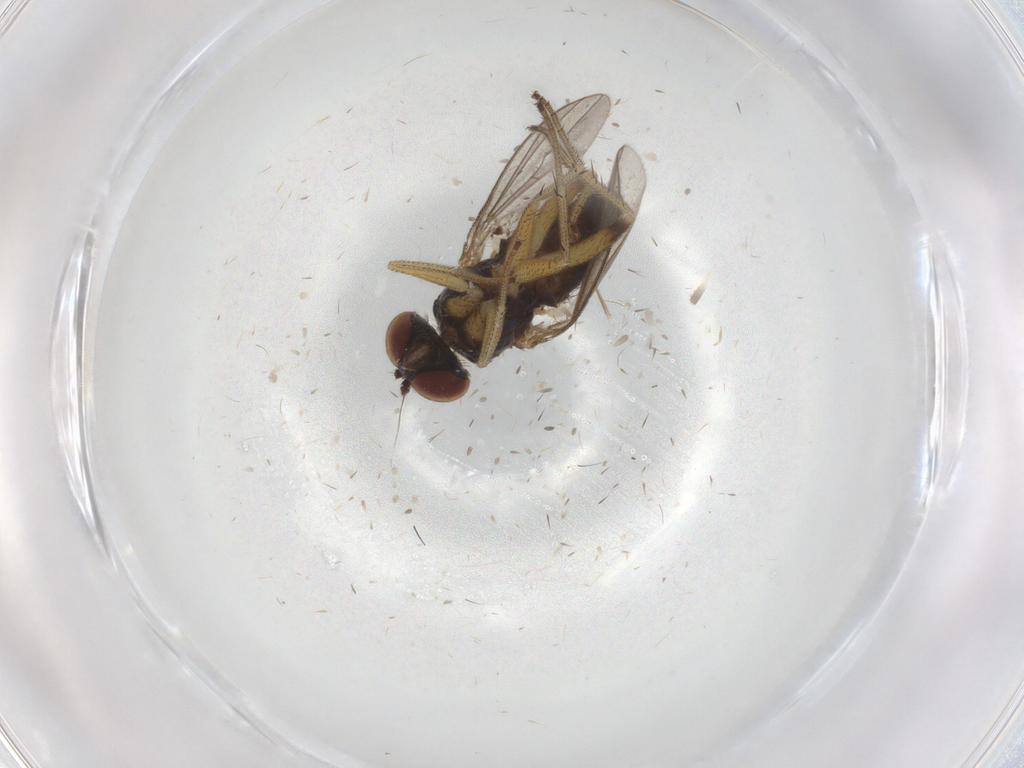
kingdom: Animalia
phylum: Arthropoda
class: Insecta
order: Diptera
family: Dolichopodidae
